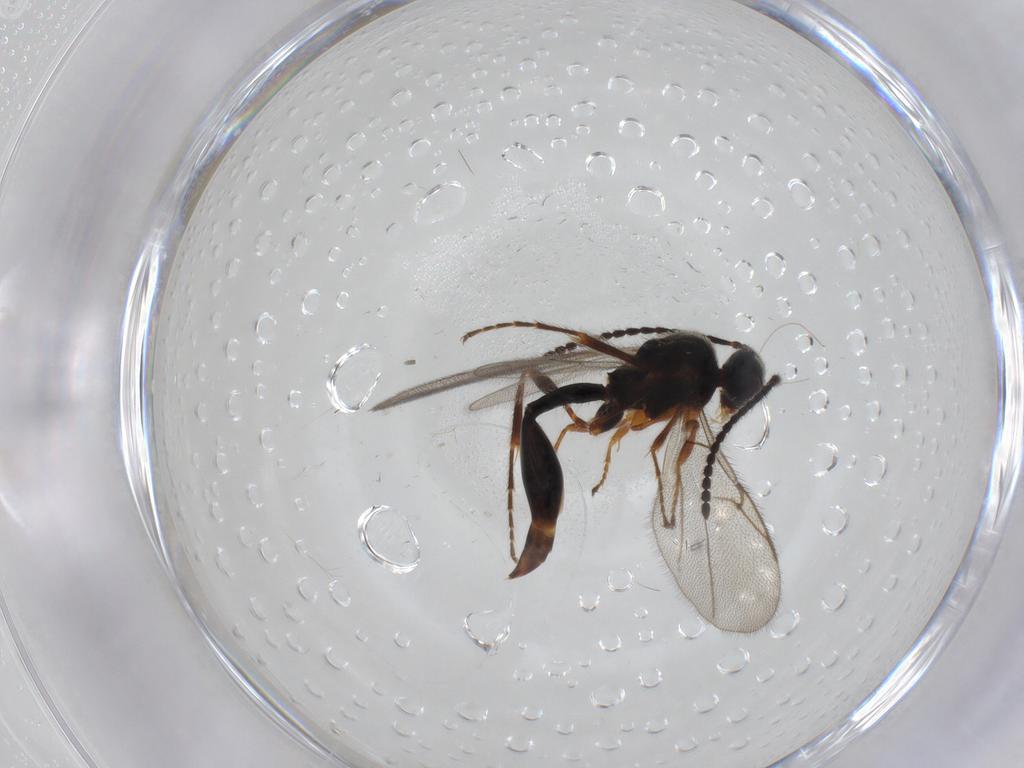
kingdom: Animalia
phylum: Arthropoda
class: Insecta
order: Hymenoptera
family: Diapriidae
